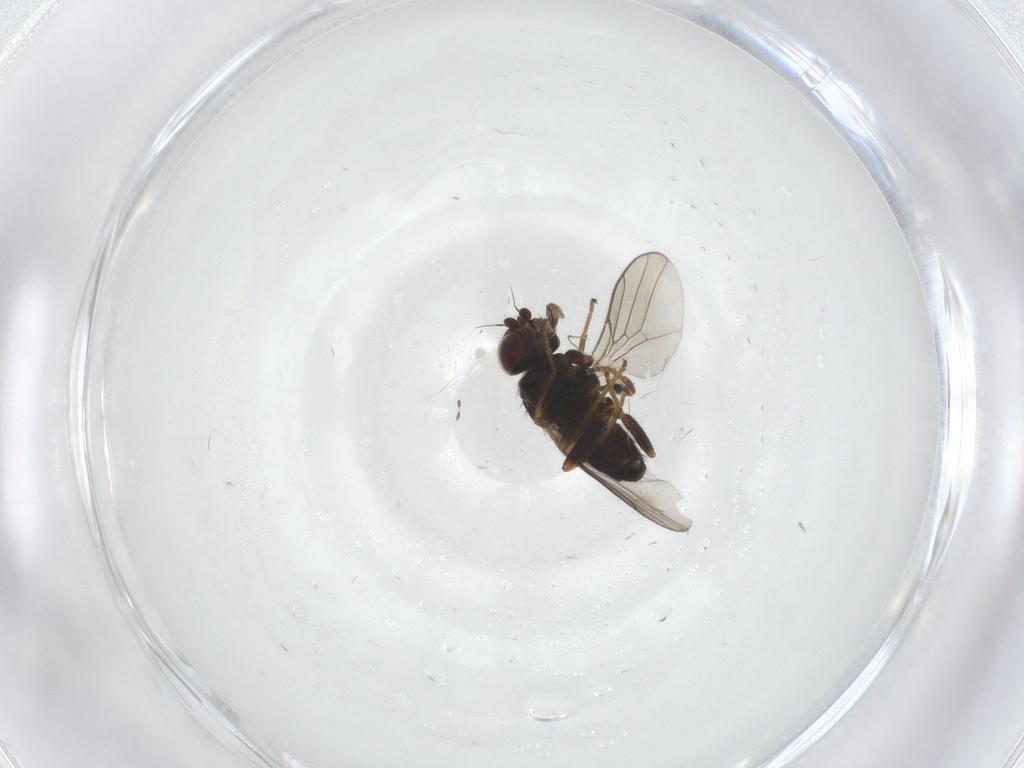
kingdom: Animalia
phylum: Arthropoda
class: Insecta
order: Diptera
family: Chloropidae
